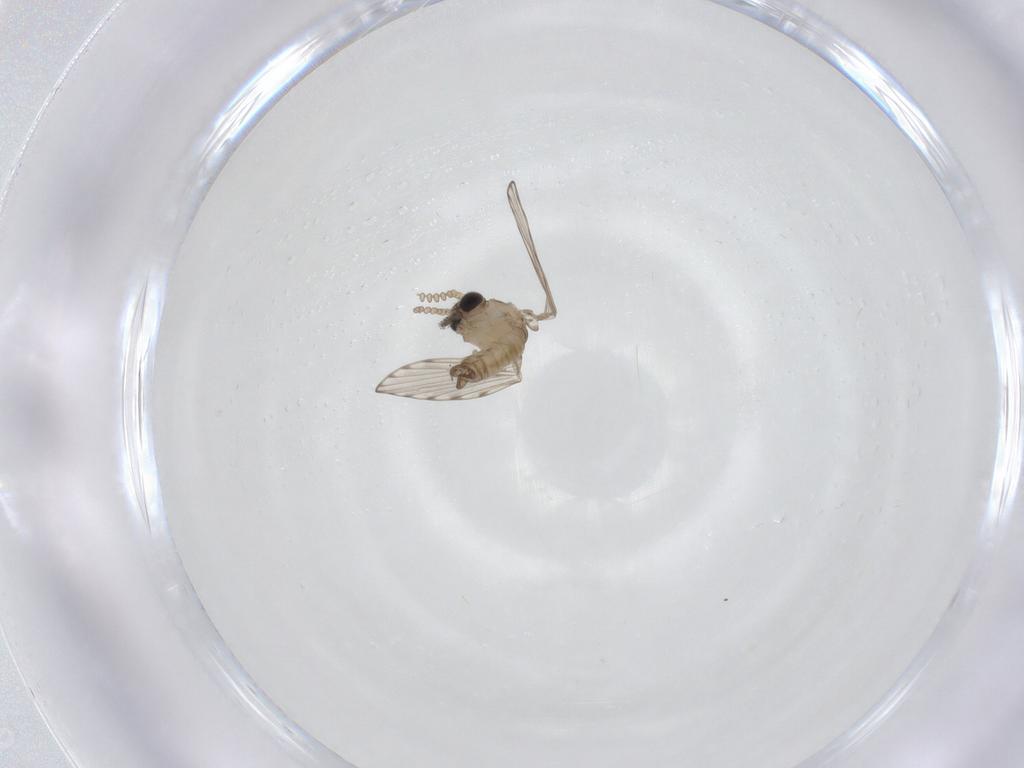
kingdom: Animalia
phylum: Arthropoda
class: Insecta
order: Diptera
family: Psychodidae
